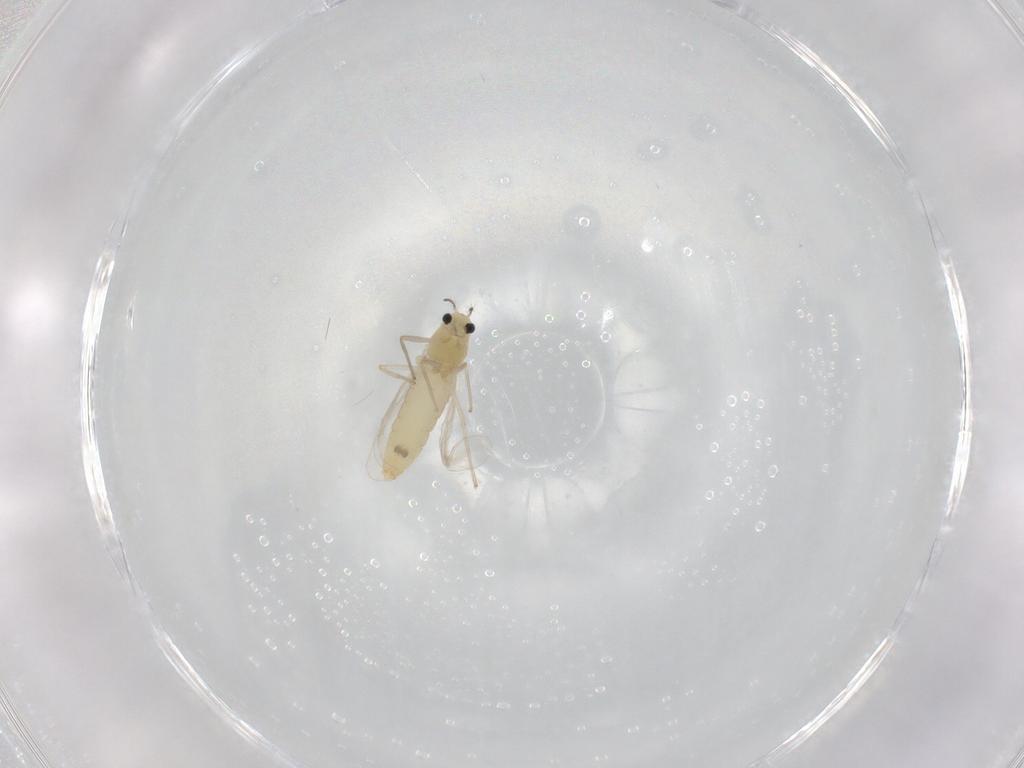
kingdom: Animalia
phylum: Arthropoda
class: Insecta
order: Diptera
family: Chironomidae
